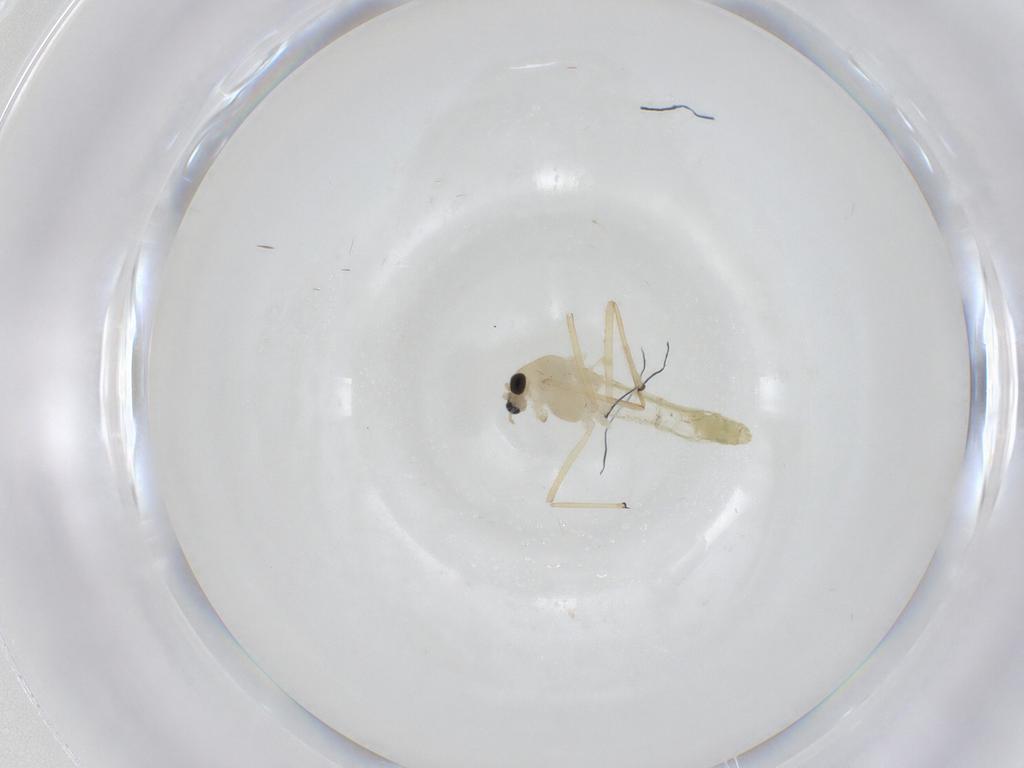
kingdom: Animalia
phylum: Arthropoda
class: Insecta
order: Diptera
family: Chironomidae
